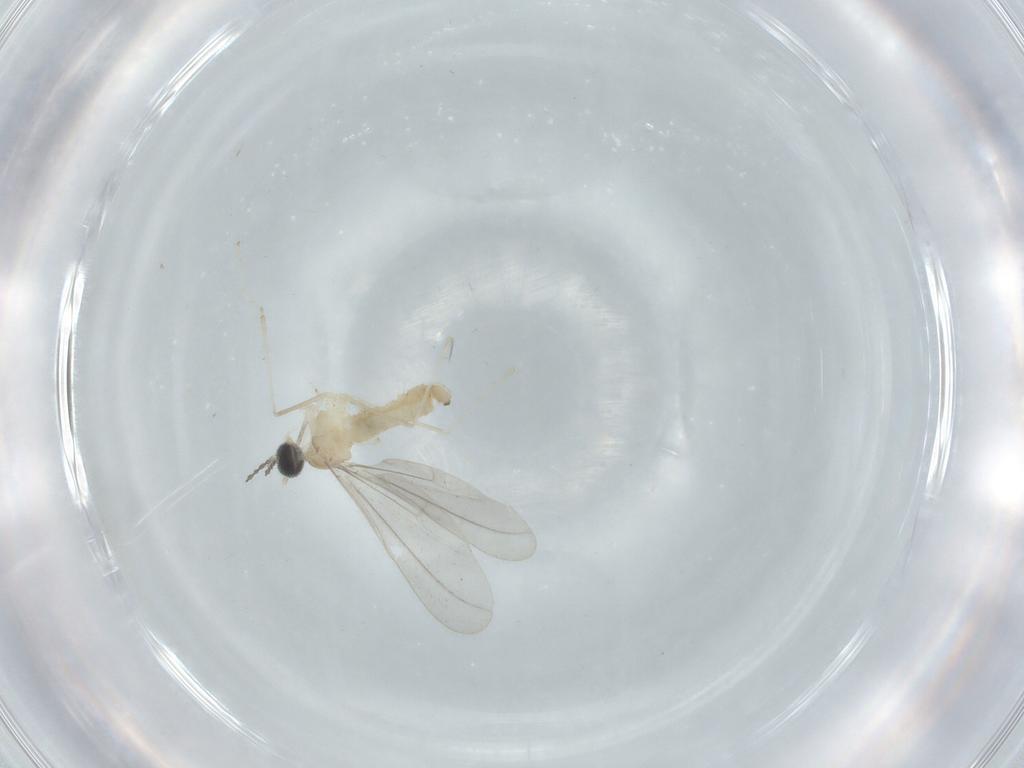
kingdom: Animalia
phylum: Arthropoda
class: Insecta
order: Diptera
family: Cecidomyiidae
